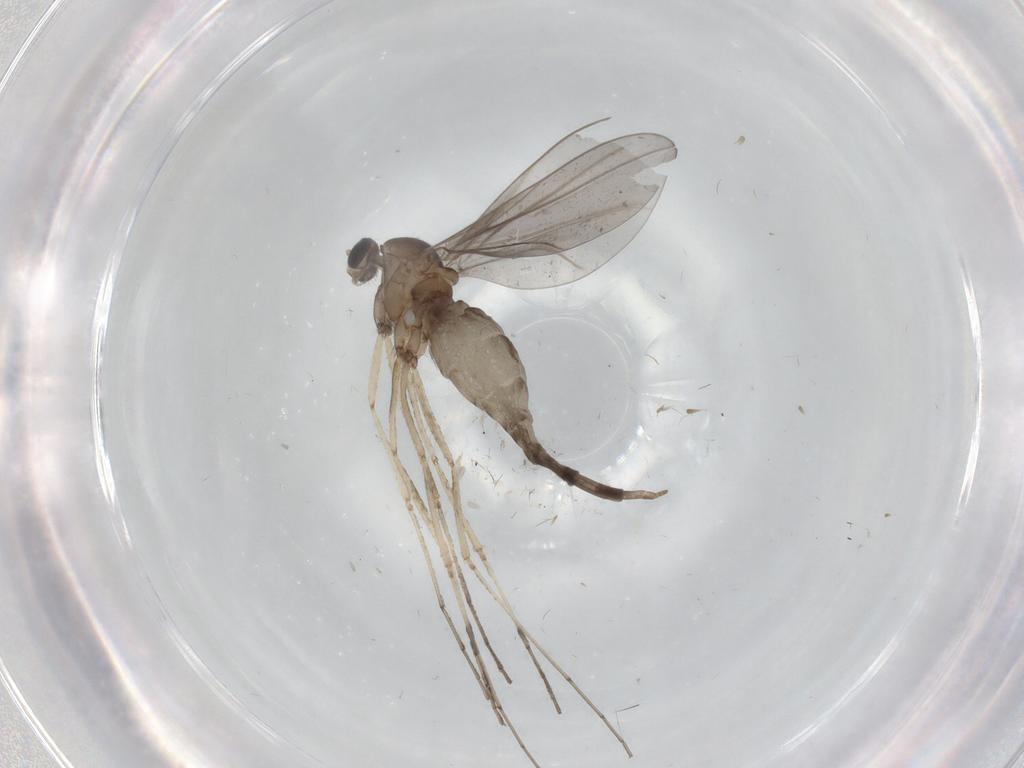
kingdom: Animalia
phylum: Arthropoda
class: Insecta
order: Diptera
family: Cecidomyiidae
